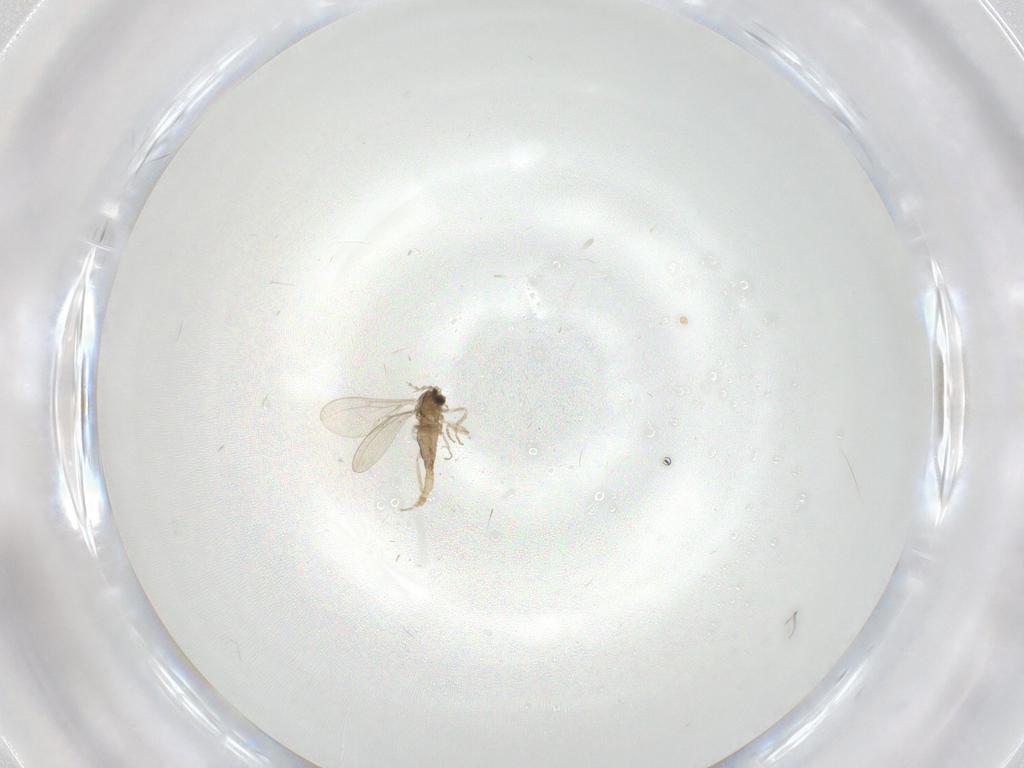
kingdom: Animalia
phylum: Arthropoda
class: Insecta
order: Diptera
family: Cecidomyiidae
